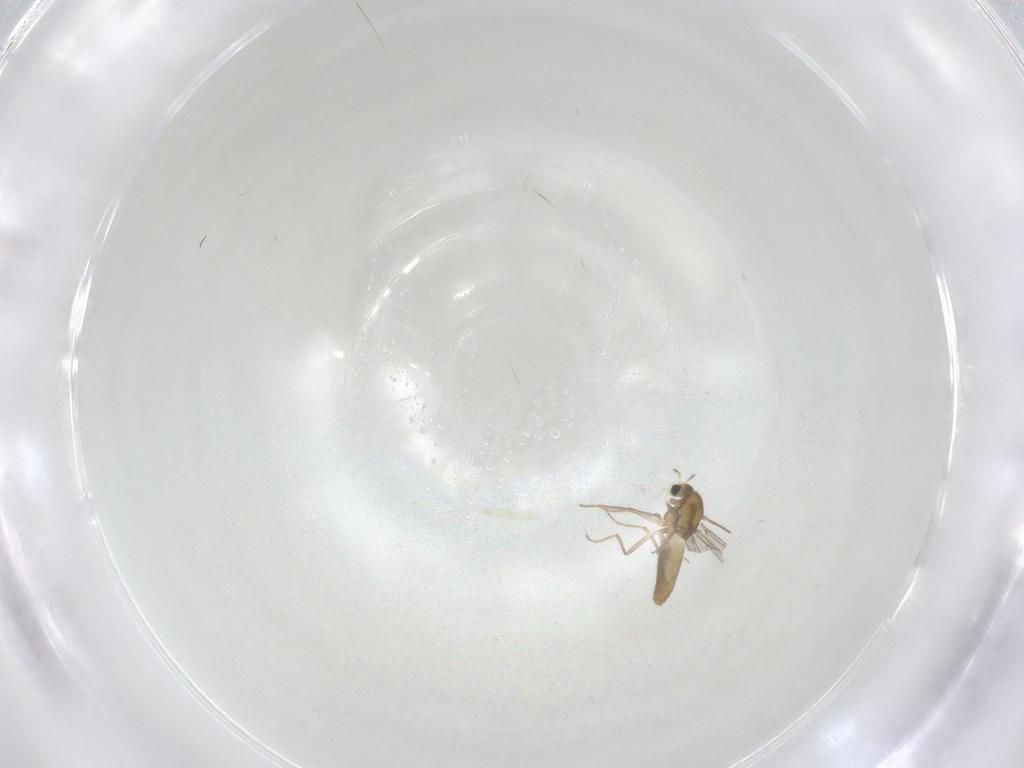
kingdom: Animalia
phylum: Arthropoda
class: Insecta
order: Diptera
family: Chironomidae
